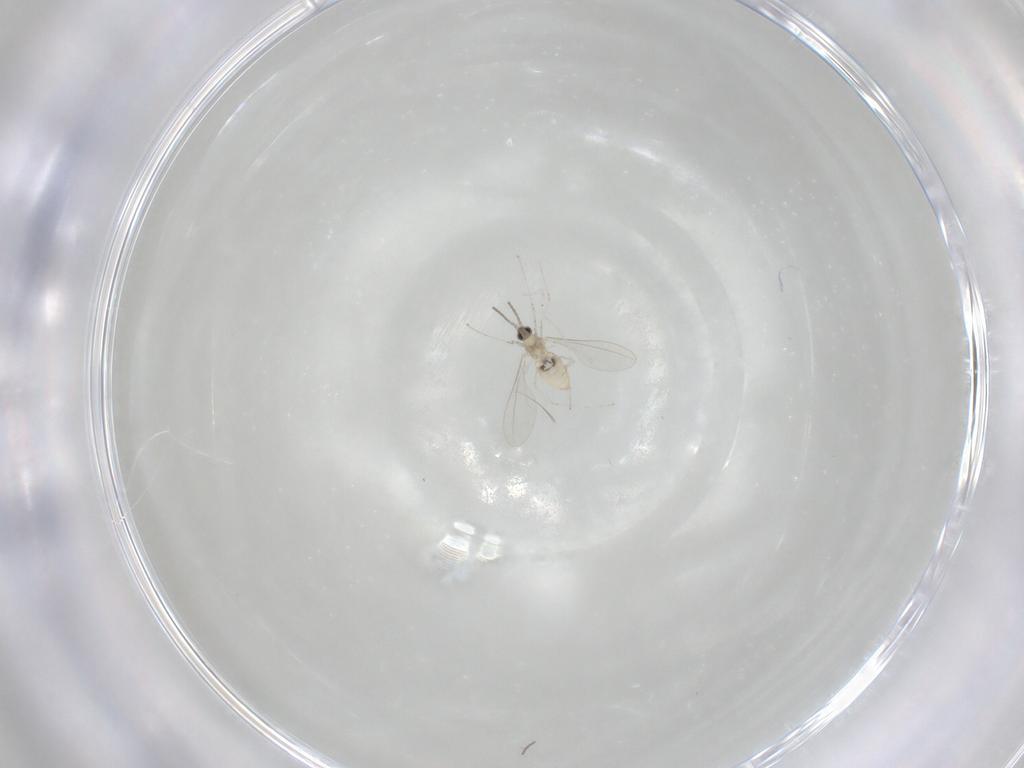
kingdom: Animalia
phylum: Arthropoda
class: Insecta
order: Diptera
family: Cecidomyiidae
